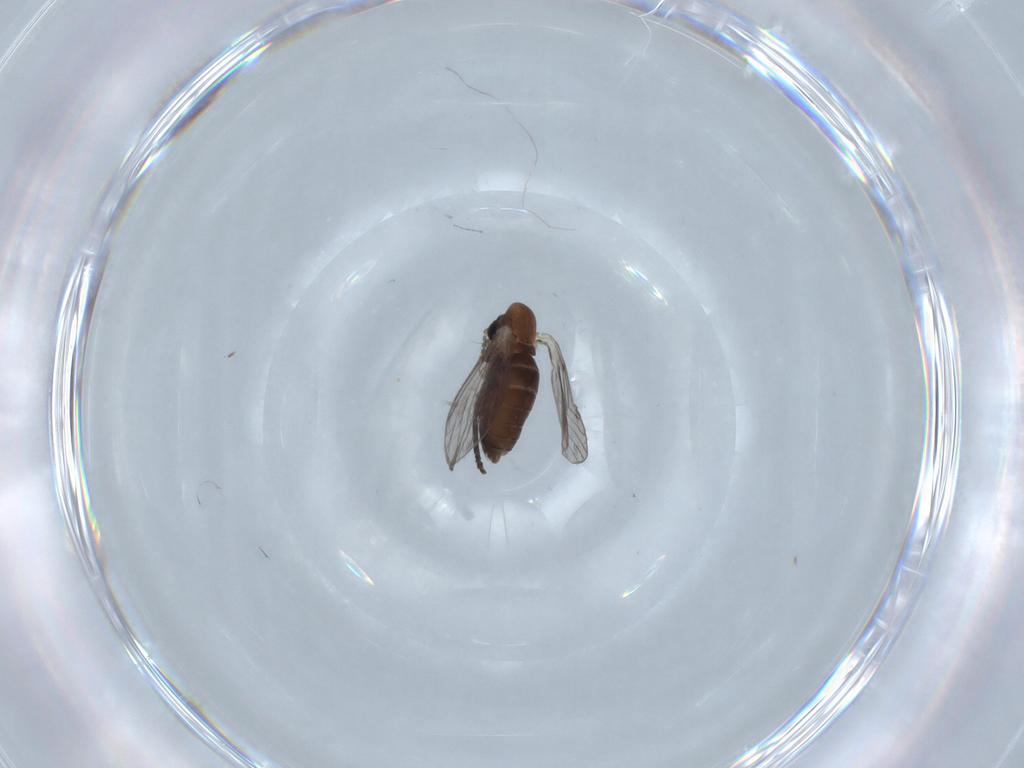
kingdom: Animalia
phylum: Arthropoda
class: Insecta
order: Diptera
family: Psychodidae
